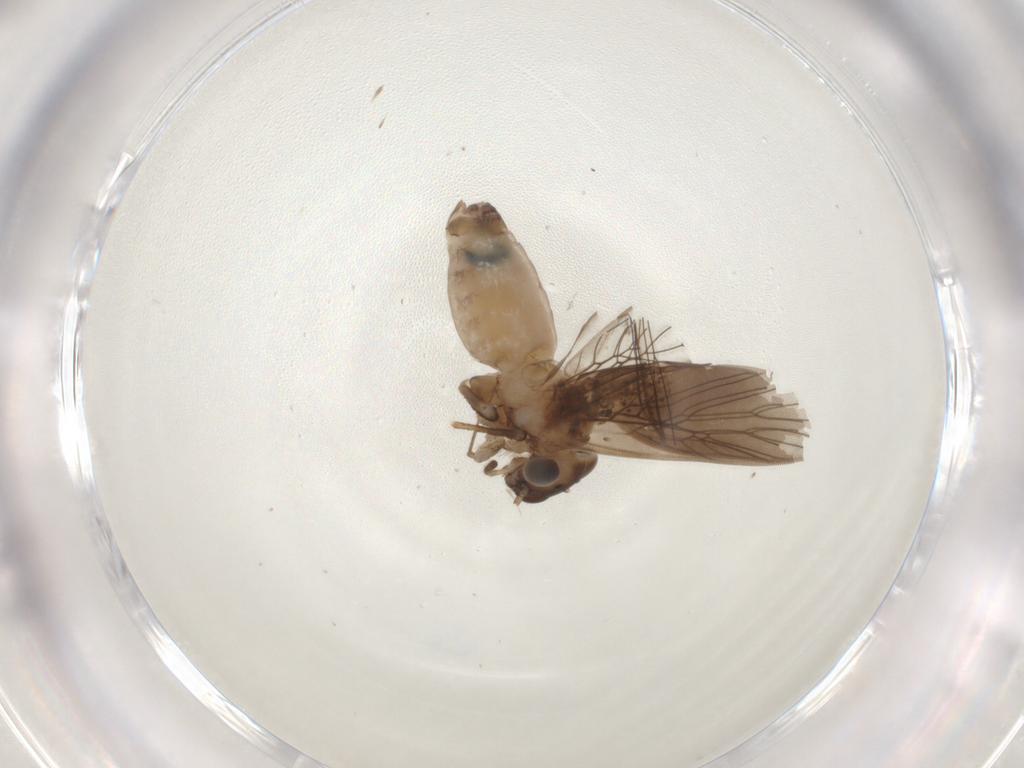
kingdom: Animalia
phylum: Arthropoda
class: Insecta
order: Psocodea
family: Lepidopsocidae
